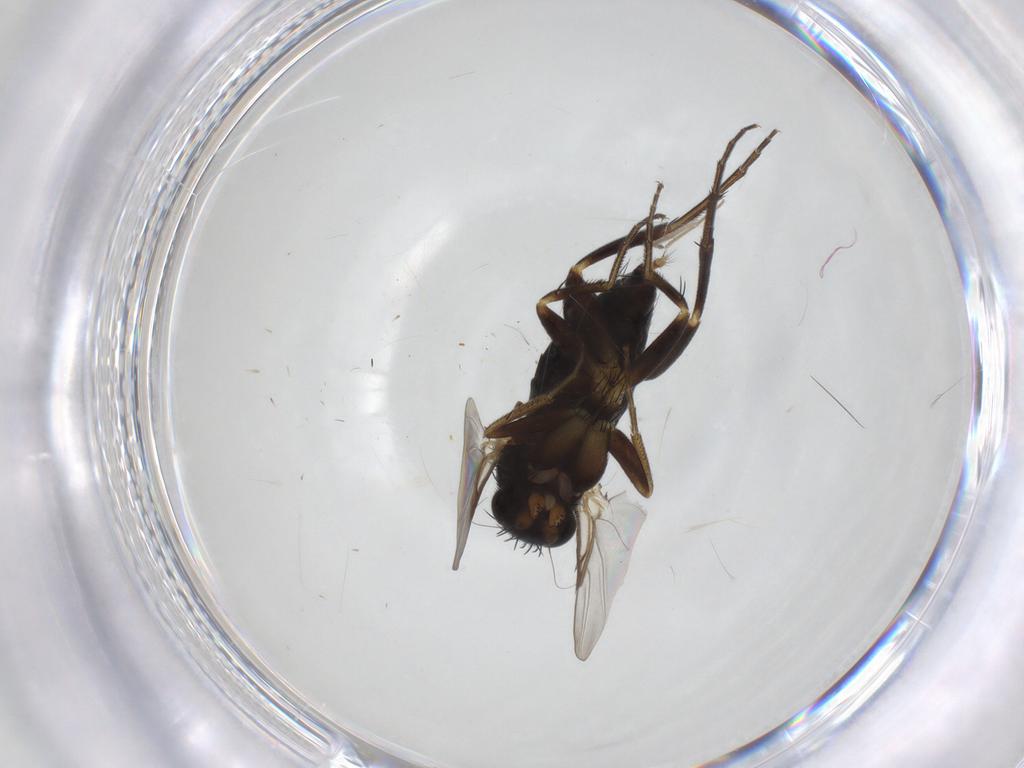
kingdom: Animalia
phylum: Arthropoda
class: Insecta
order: Diptera
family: Phoridae
